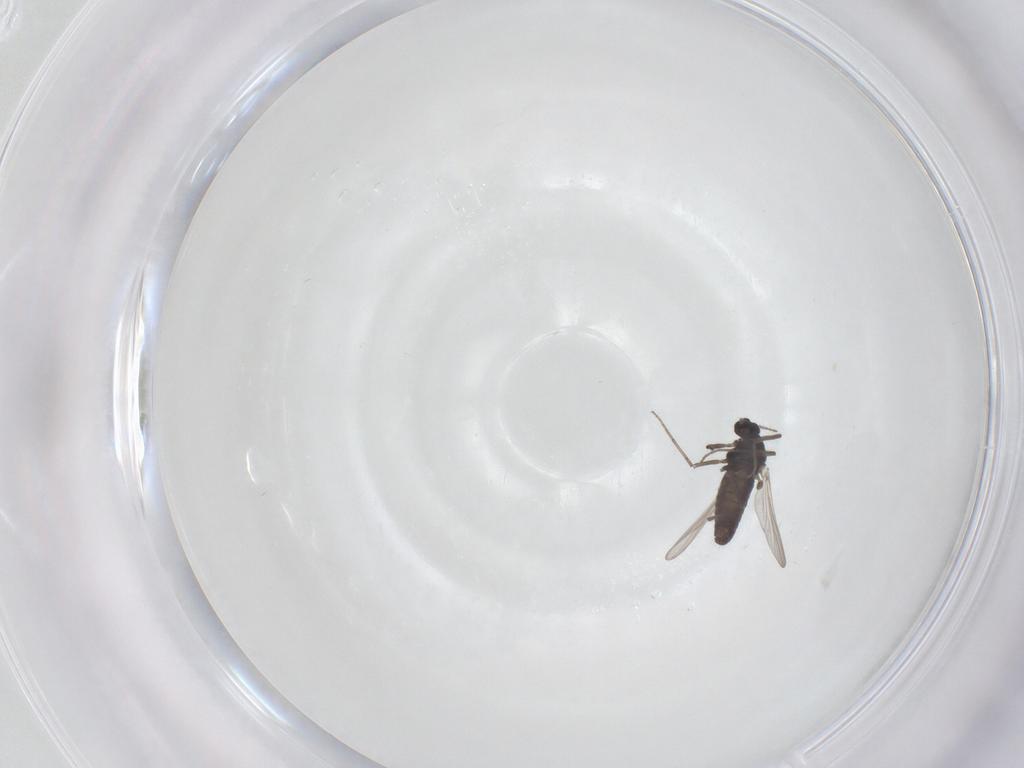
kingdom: Animalia
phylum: Arthropoda
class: Insecta
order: Diptera
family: Chironomidae
